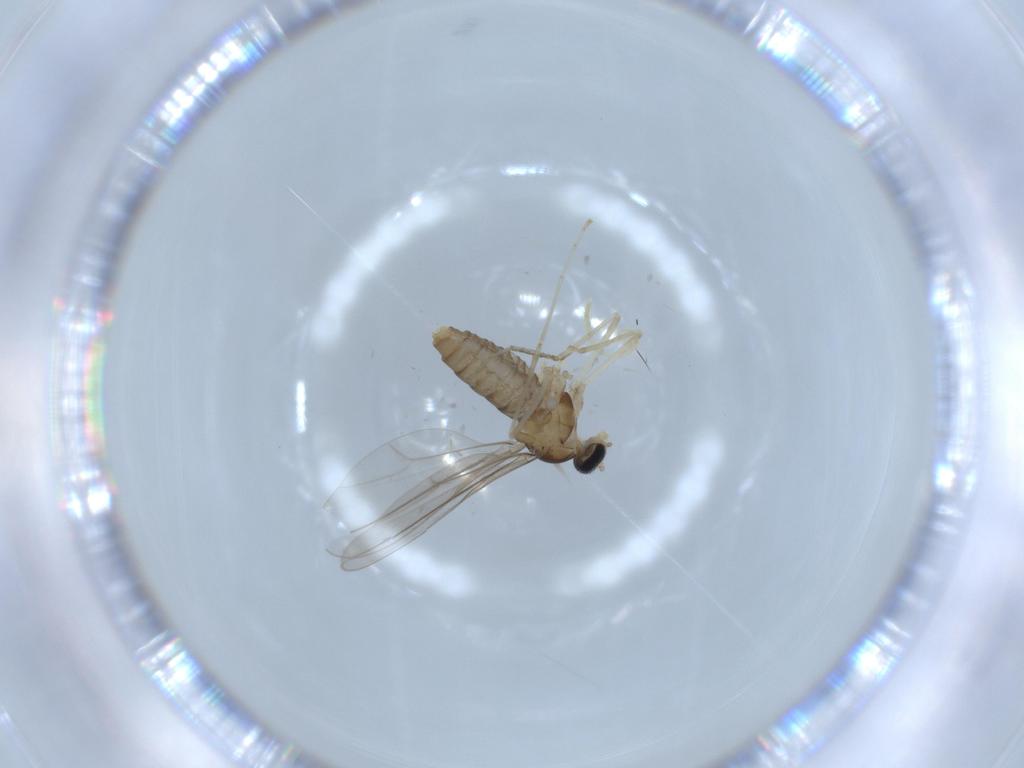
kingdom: Animalia
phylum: Arthropoda
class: Insecta
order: Diptera
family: Cecidomyiidae
